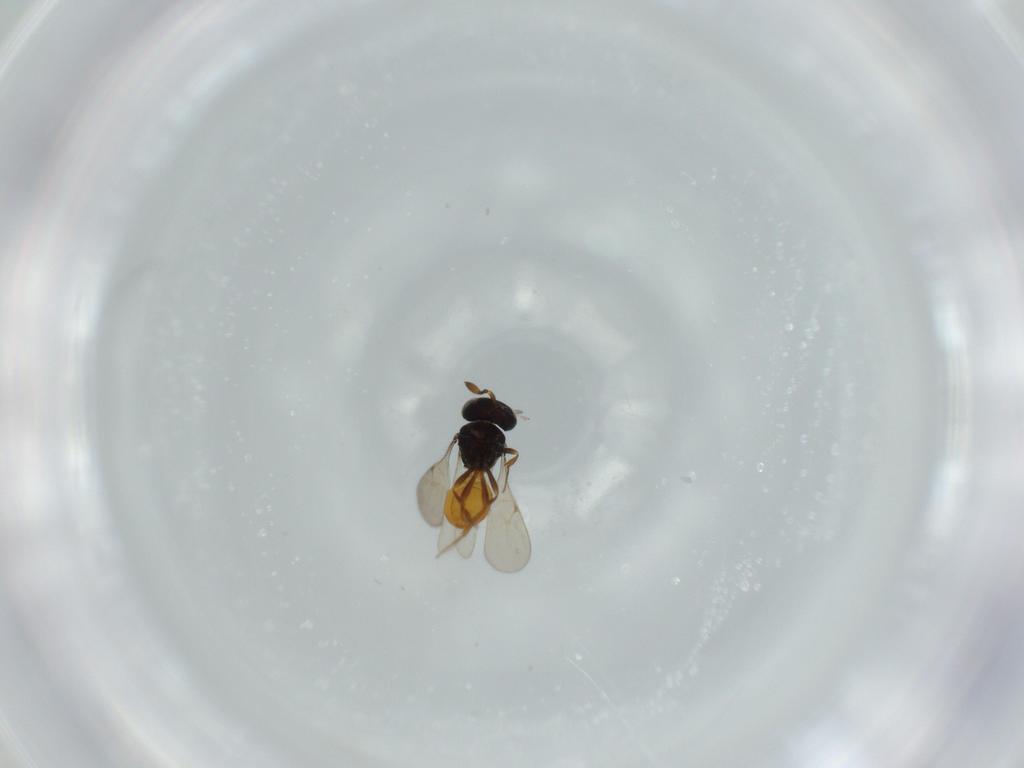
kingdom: Animalia
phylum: Arthropoda
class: Insecta
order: Hymenoptera
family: Scelionidae
